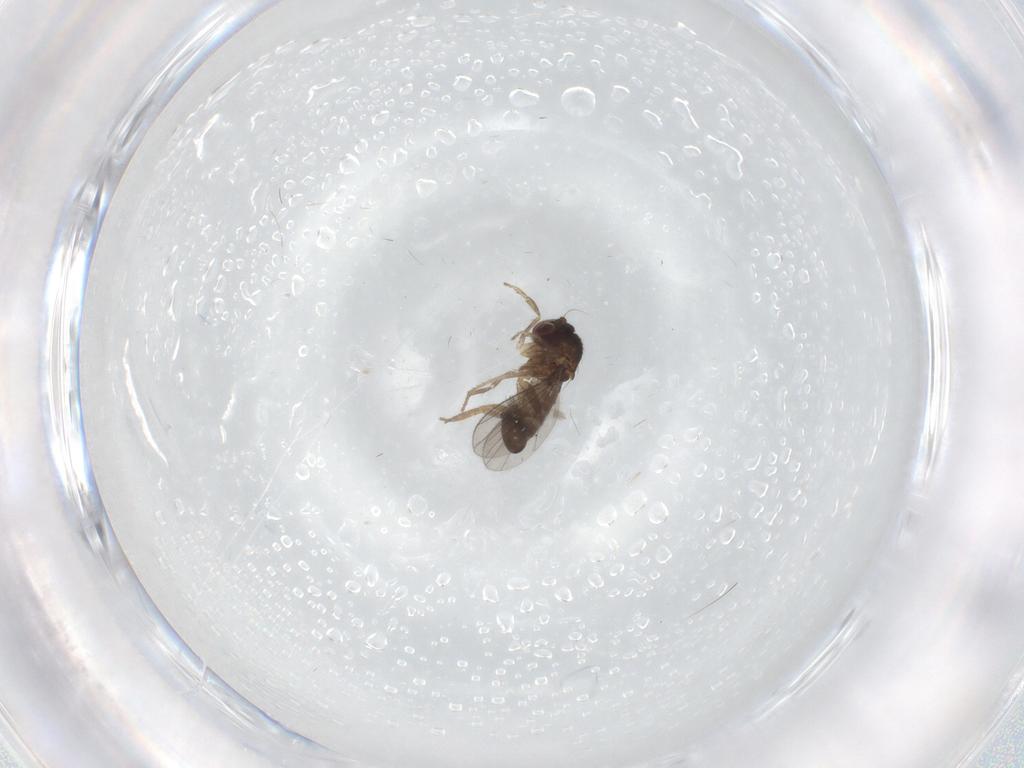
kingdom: Animalia
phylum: Arthropoda
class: Insecta
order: Diptera
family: Dolichopodidae
